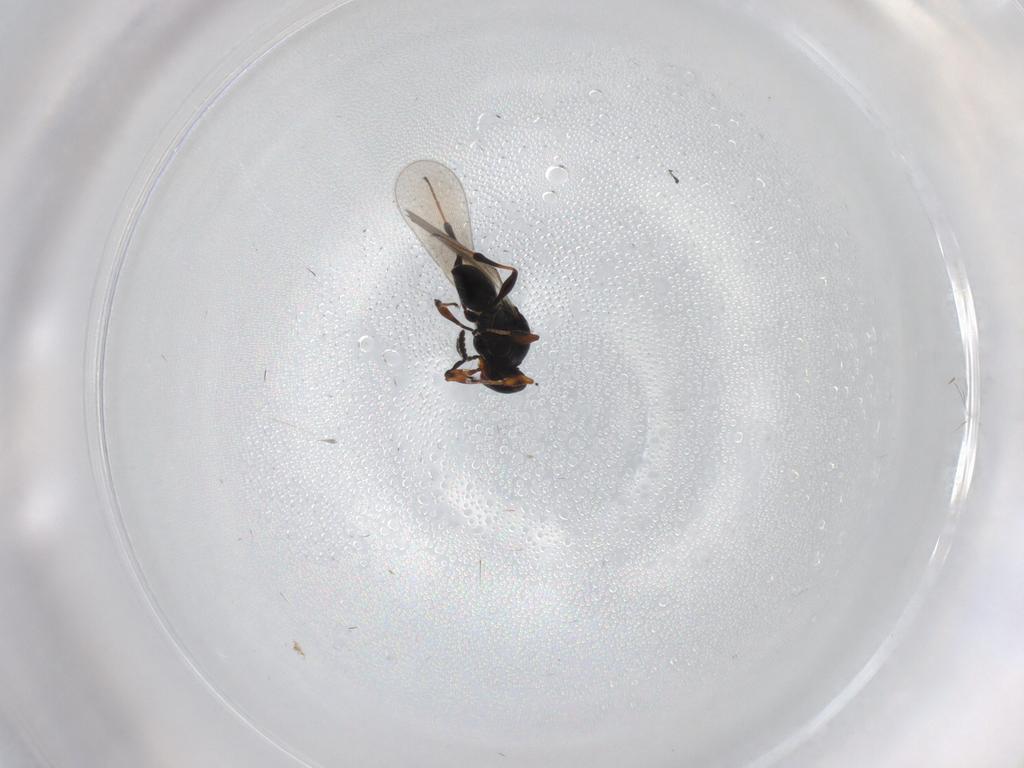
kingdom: Animalia
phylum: Arthropoda
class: Insecta
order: Hymenoptera
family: Platygastridae
